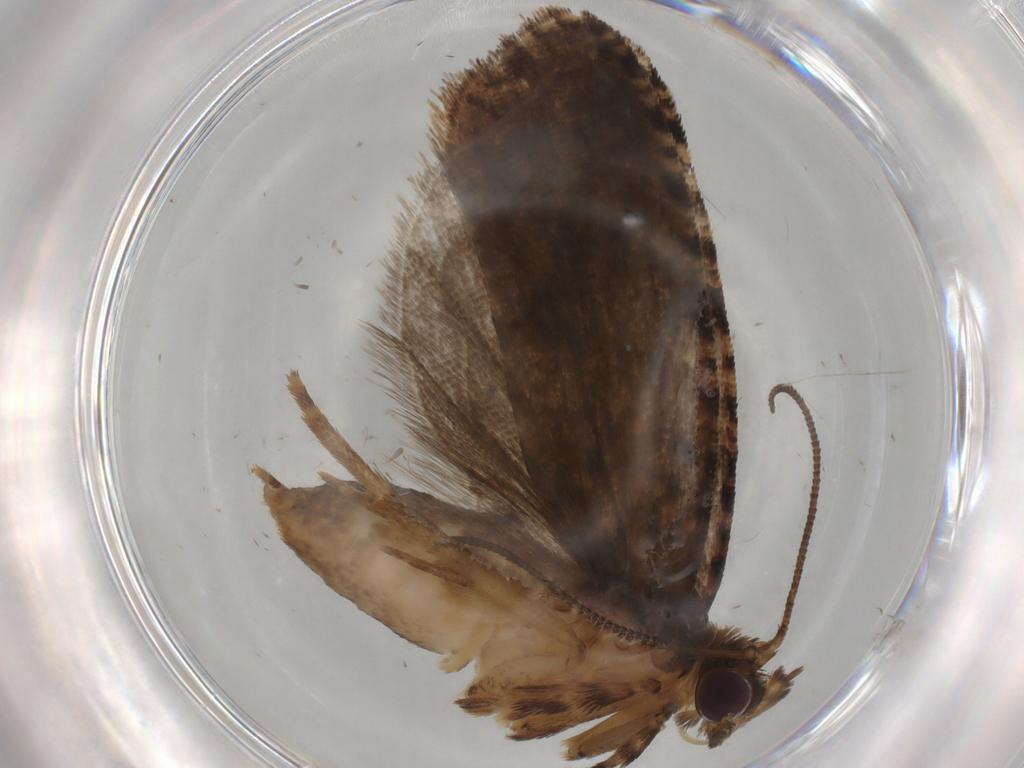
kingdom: Animalia
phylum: Arthropoda
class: Insecta
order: Lepidoptera
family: Tortricidae
